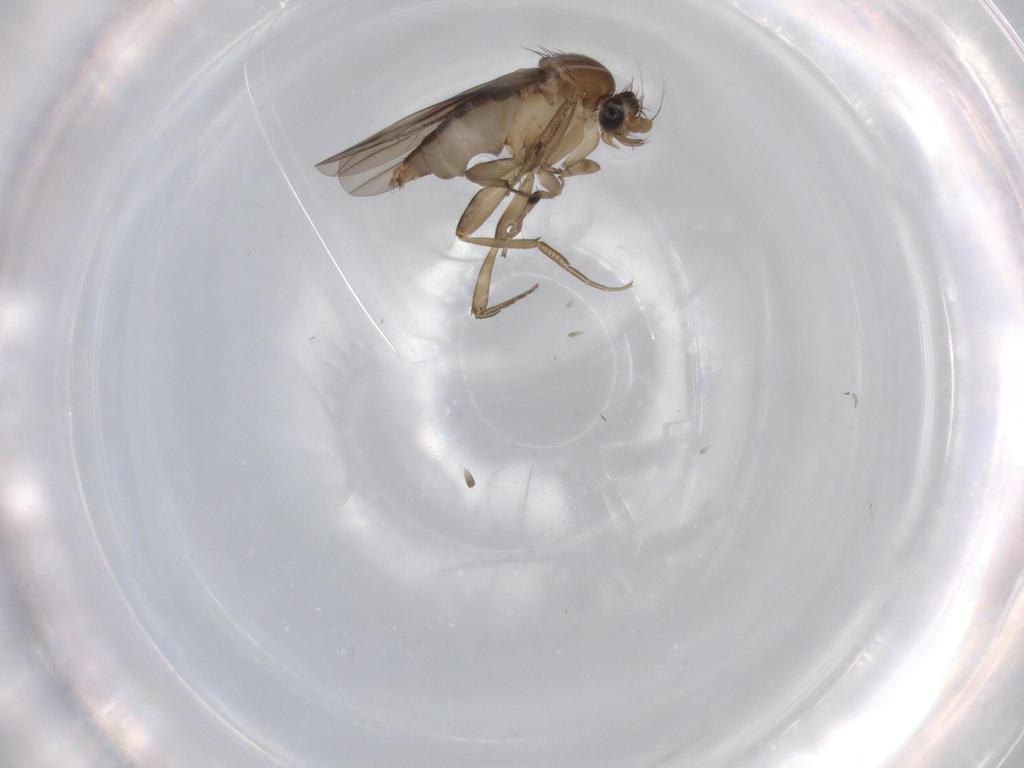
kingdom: Animalia
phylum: Arthropoda
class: Insecta
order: Diptera
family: Phoridae
